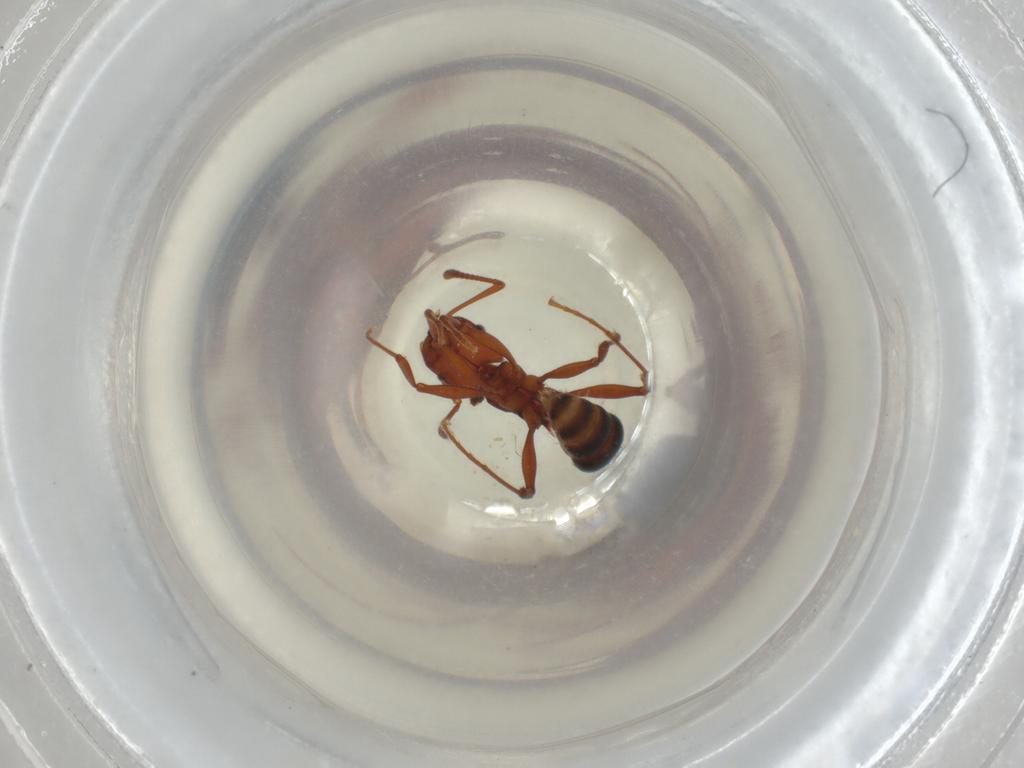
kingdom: Animalia
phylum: Arthropoda
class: Insecta
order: Hymenoptera
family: Formicidae
